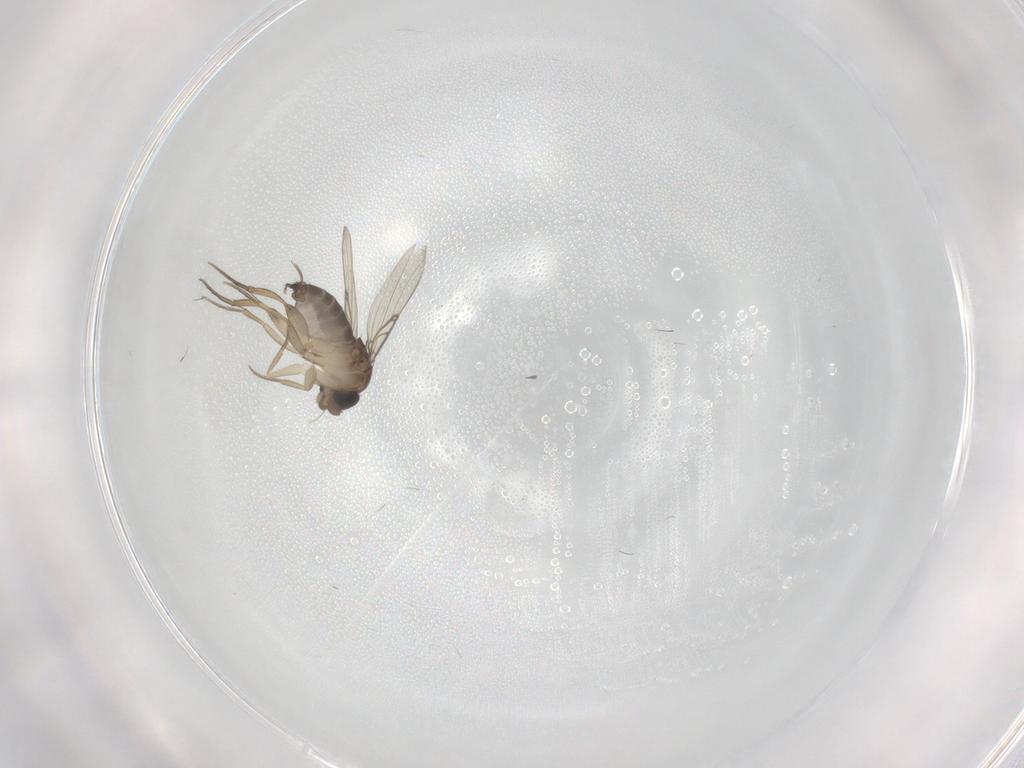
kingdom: Animalia
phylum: Arthropoda
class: Insecta
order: Diptera
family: Phoridae
